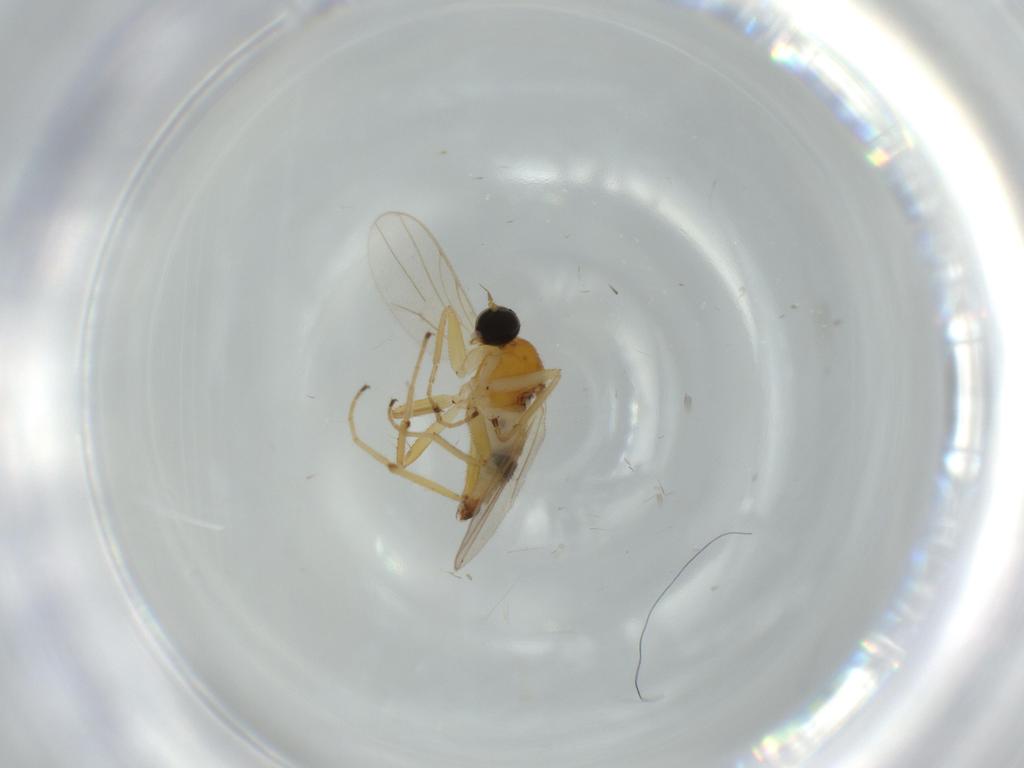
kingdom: Animalia
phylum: Arthropoda
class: Insecta
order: Diptera
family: Hybotidae
